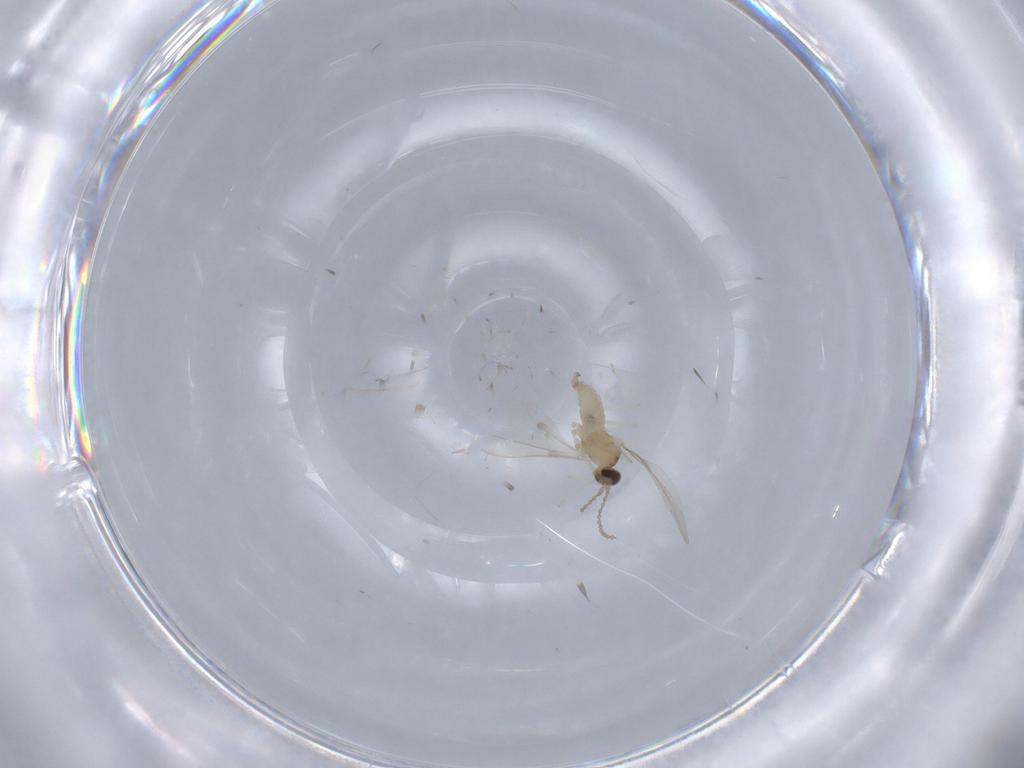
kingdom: Animalia
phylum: Arthropoda
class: Insecta
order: Diptera
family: Cecidomyiidae
